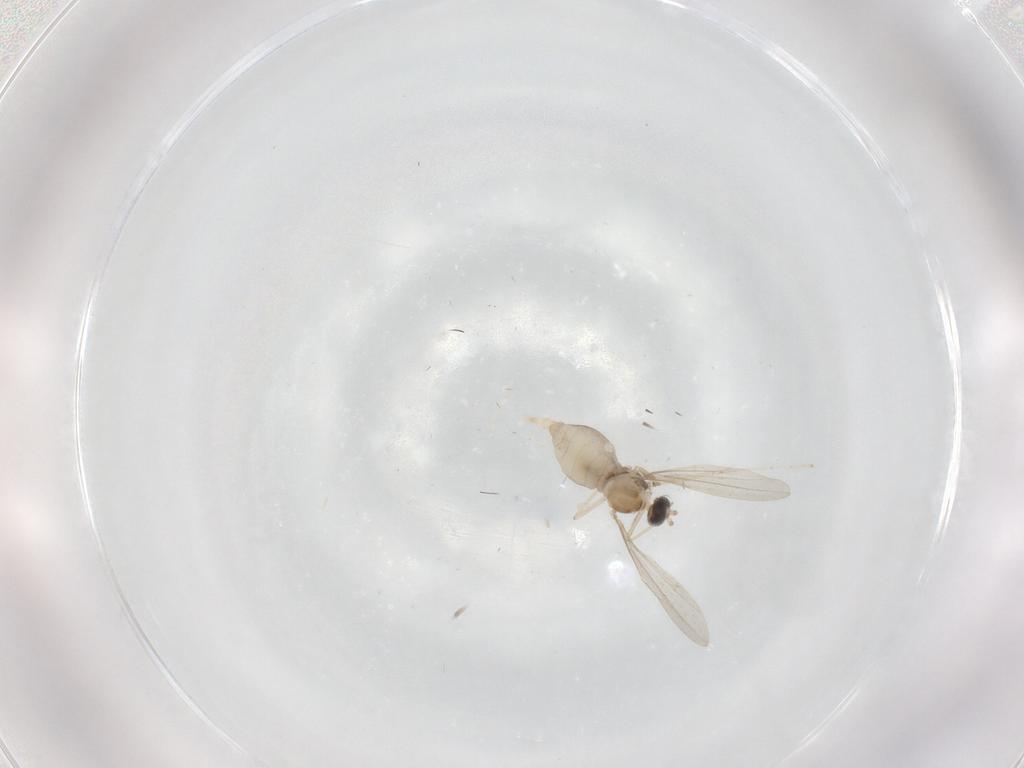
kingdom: Animalia
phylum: Arthropoda
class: Insecta
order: Diptera
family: Cecidomyiidae
